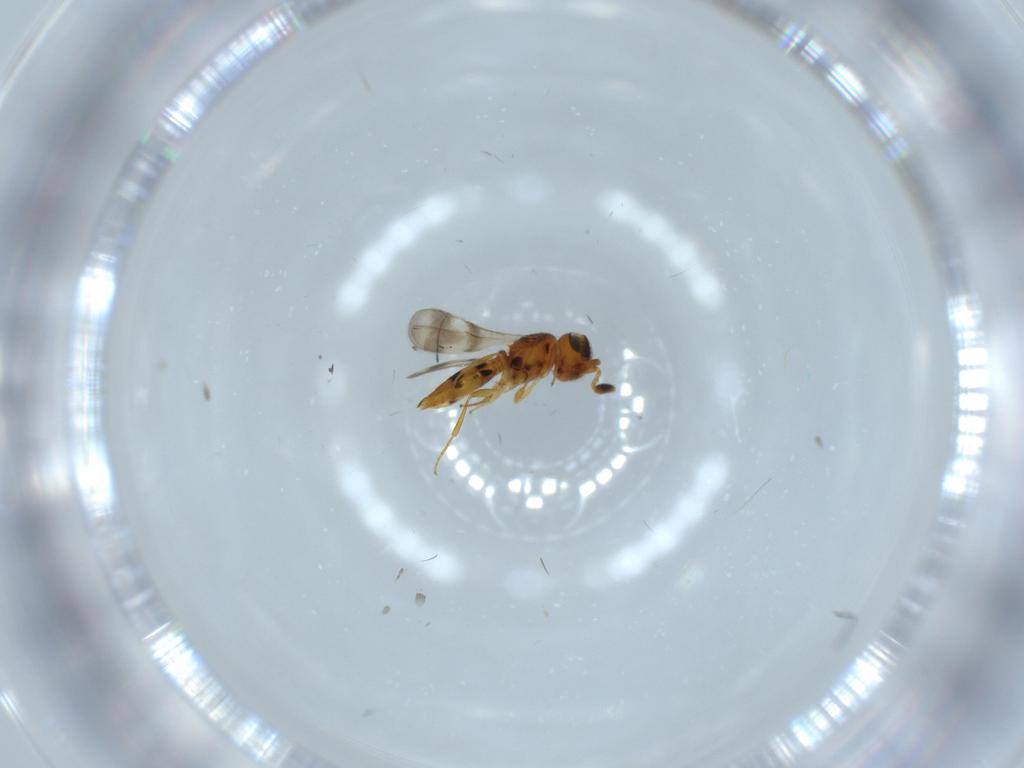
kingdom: Animalia
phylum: Arthropoda
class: Insecta
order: Hymenoptera
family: Scelionidae
